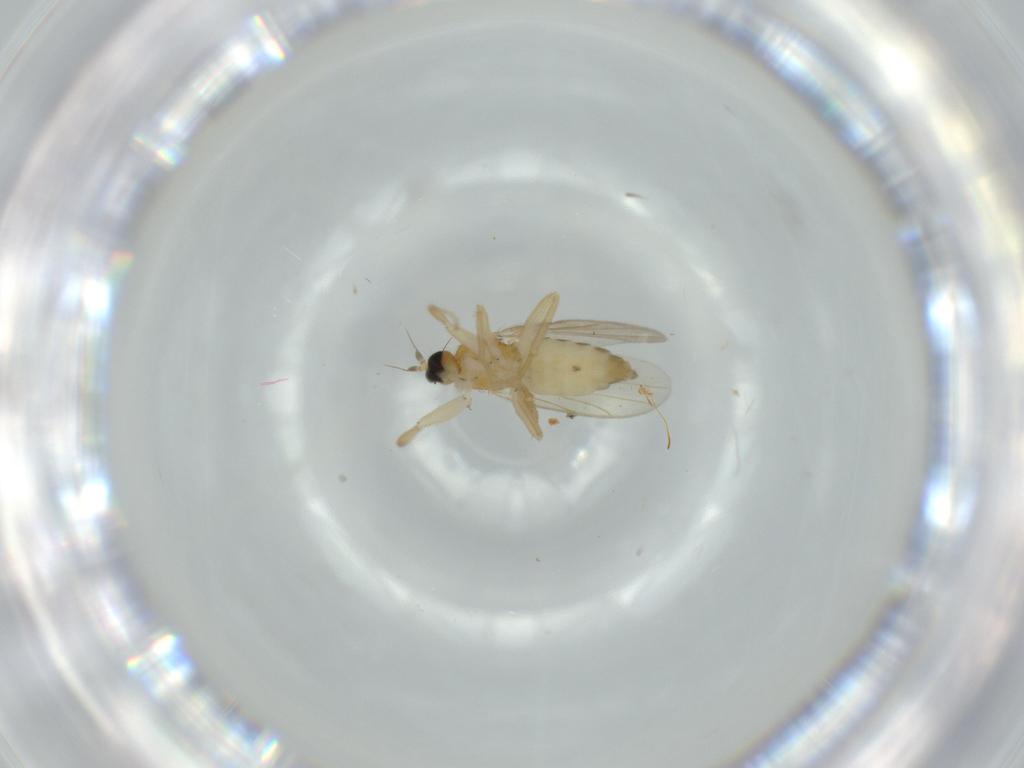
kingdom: Animalia
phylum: Arthropoda
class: Insecta
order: Diptera
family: Hybotidae
